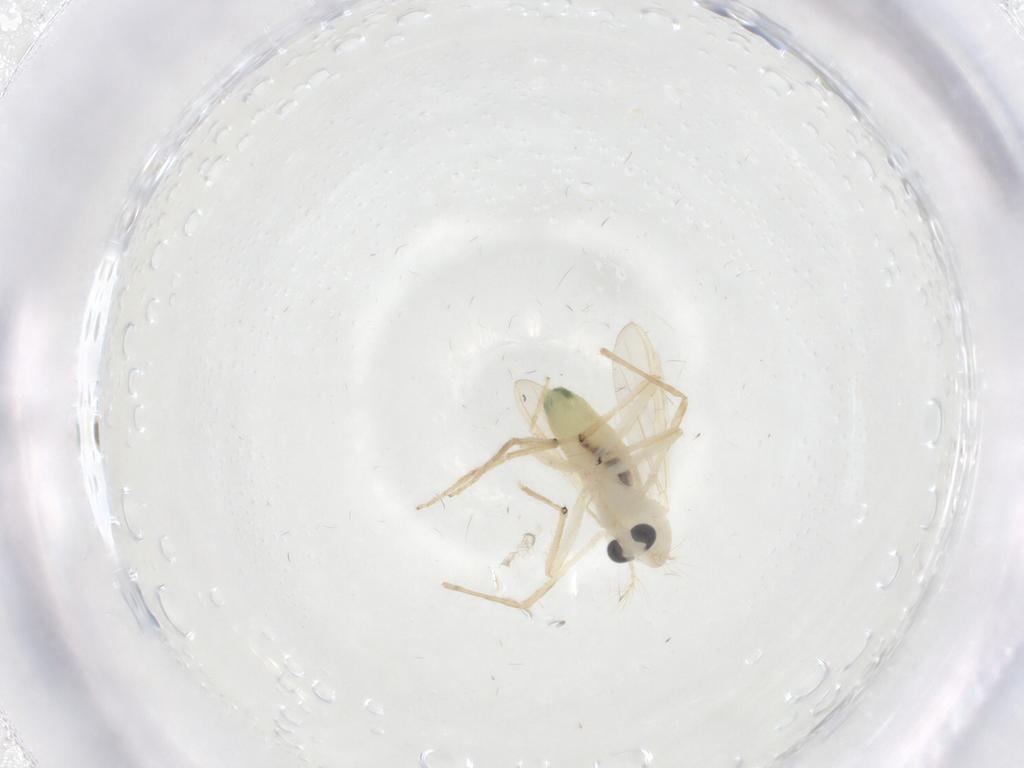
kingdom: Animalia
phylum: Arthropoda
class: Insecta
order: Diptera
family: Chironomidae
